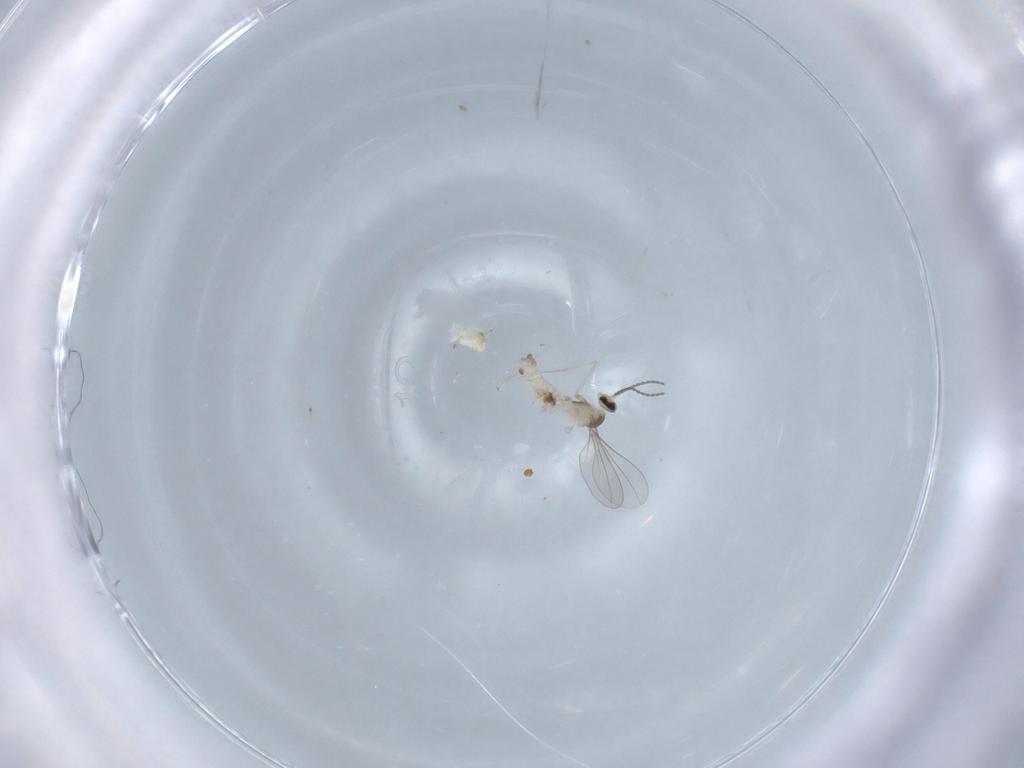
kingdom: Animalia
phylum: Arthropoda
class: Insecta
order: Diptera
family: Cecidomyiidae
